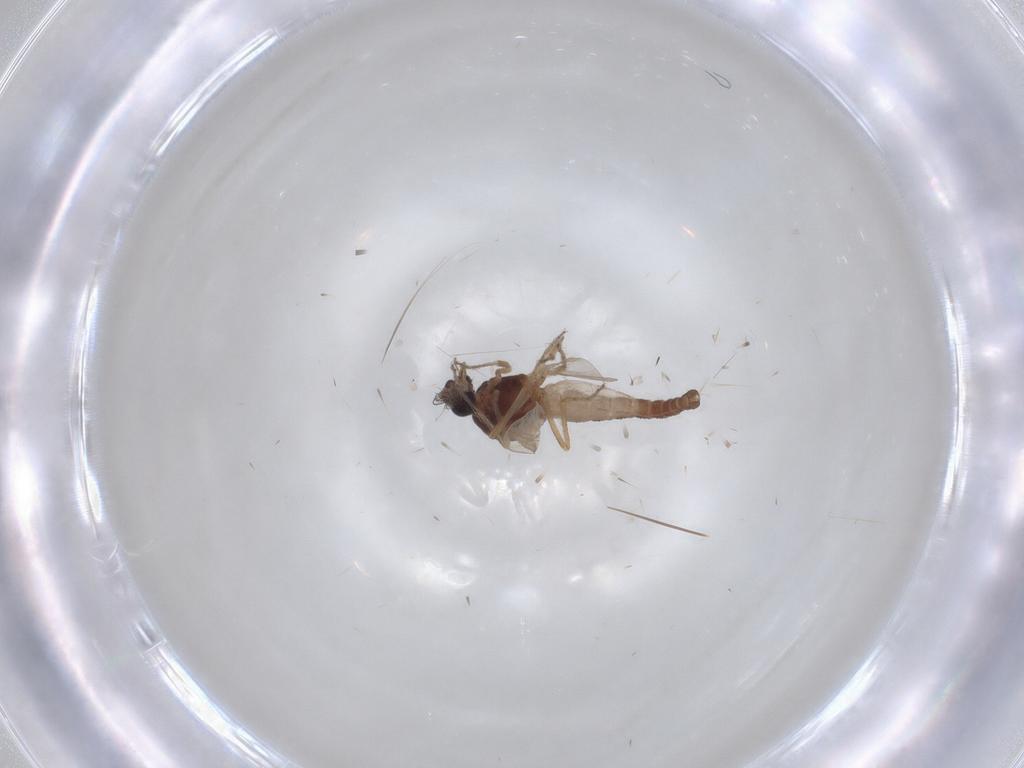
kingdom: Animalia
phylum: Arthropoda
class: Insecta
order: Diptera
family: Ceratopogonidae
